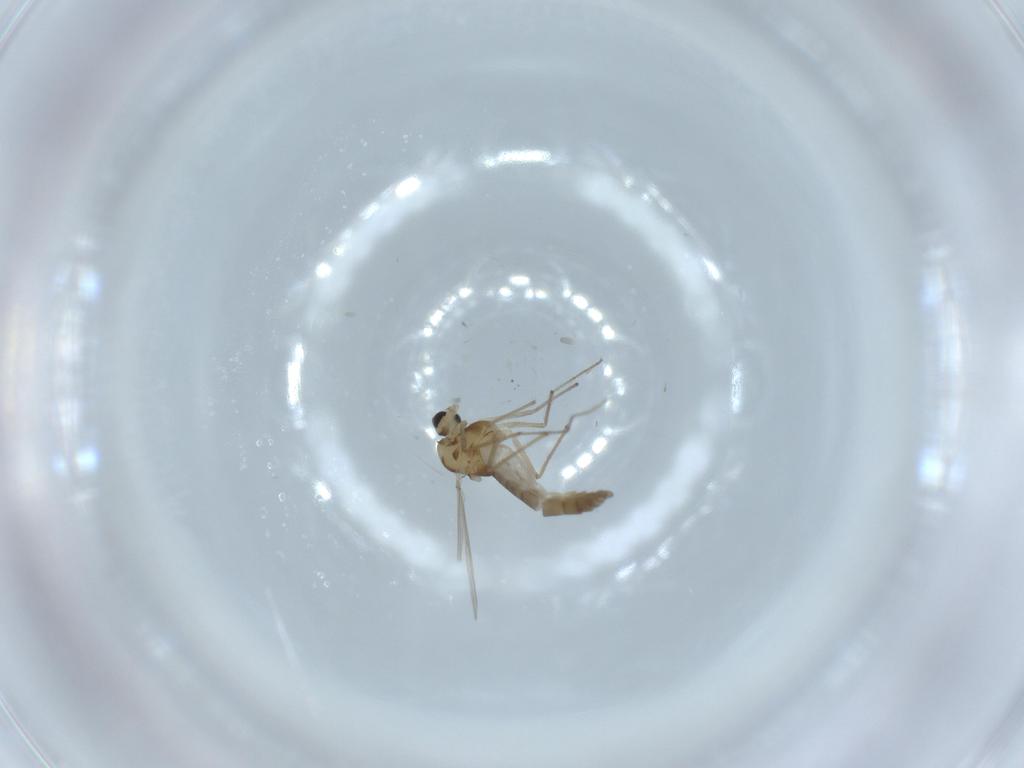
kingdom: Animalia
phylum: Arthropoda
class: Insecta
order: Diptera
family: Chironomidae
